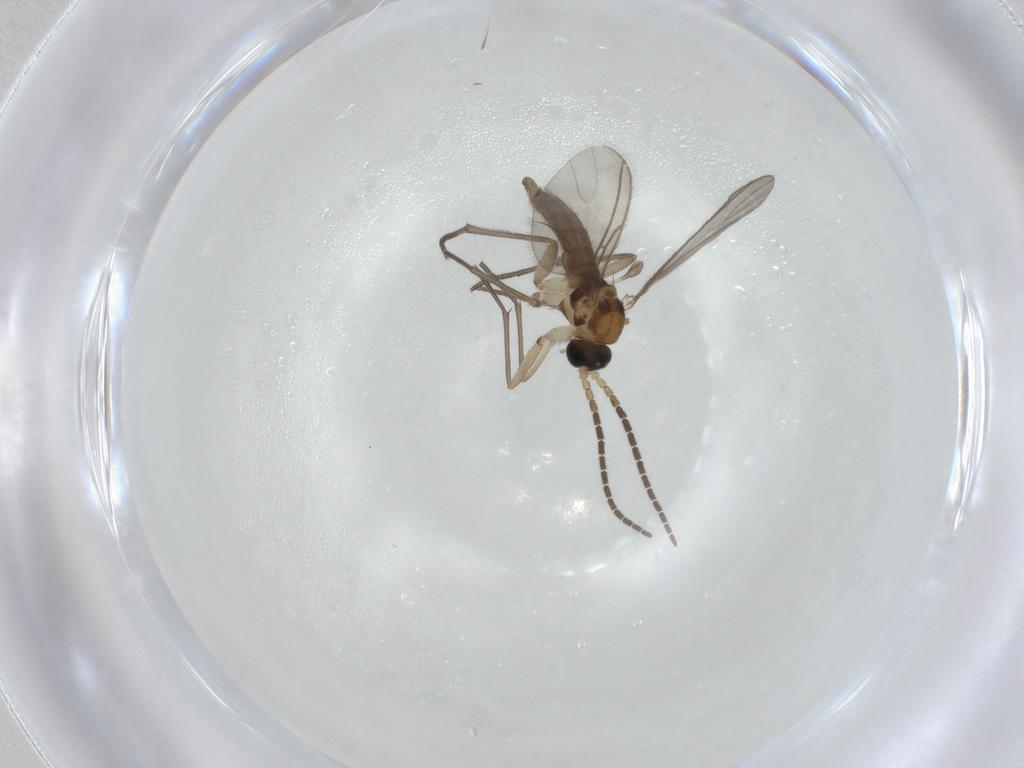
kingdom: Animalia
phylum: Arthropoda
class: Insecta
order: Diptera
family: Sciaridae
